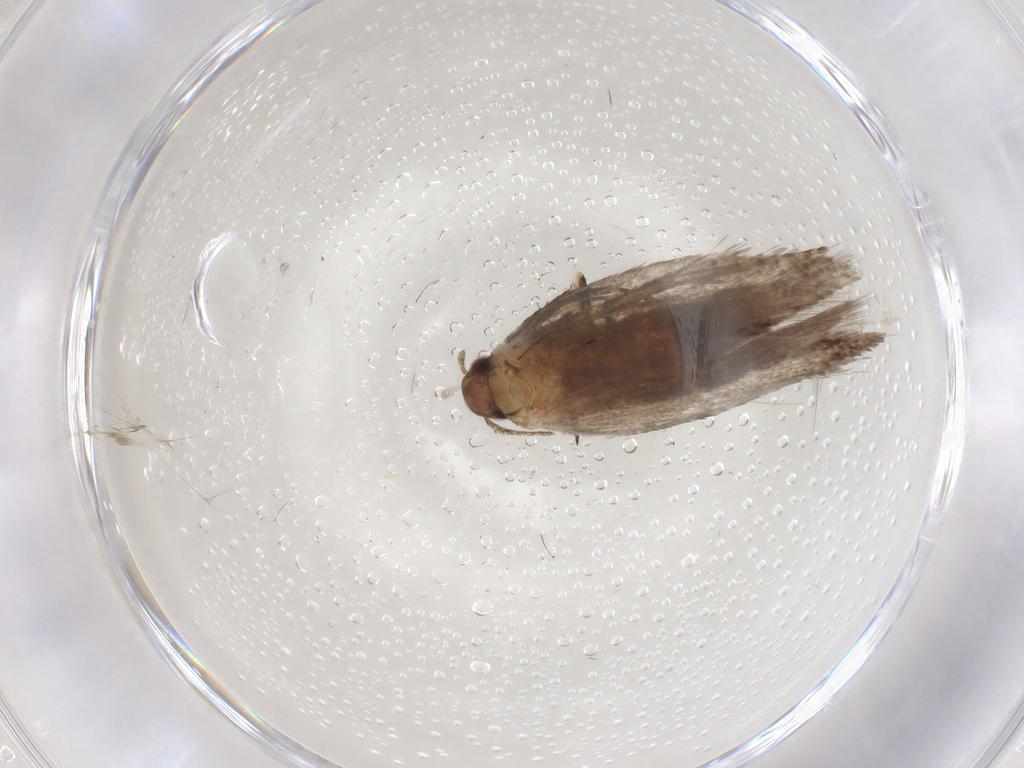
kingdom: Animalia
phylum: Arthropoda
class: Insecta
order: Lepidoptera
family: Gelechiidae
